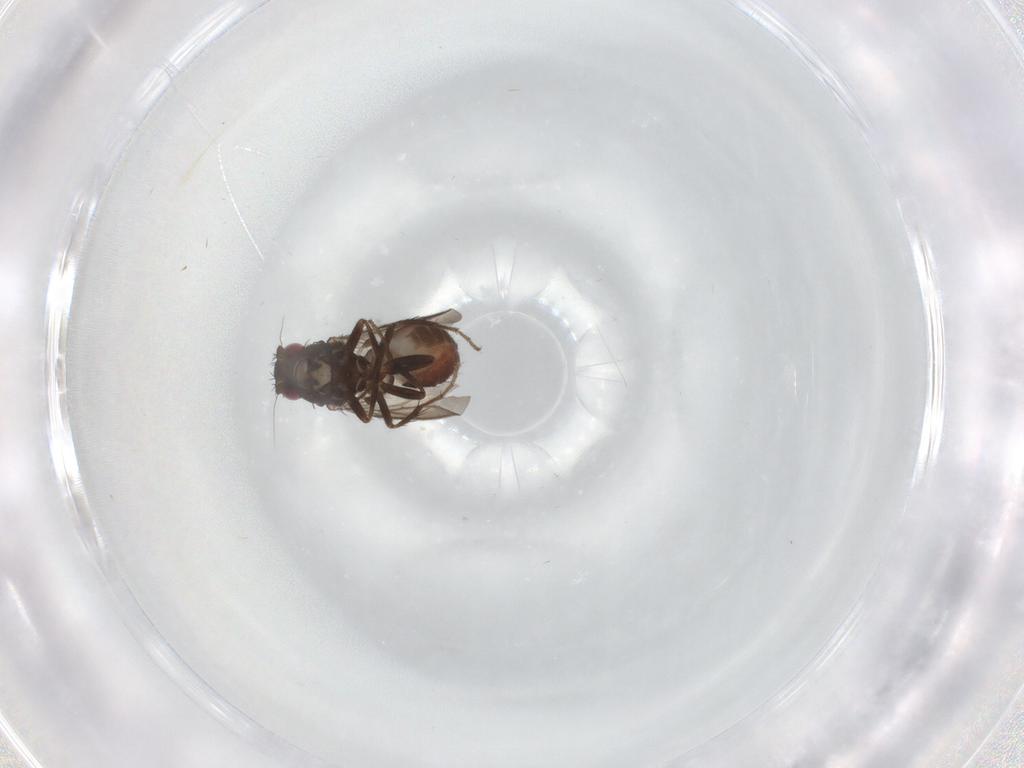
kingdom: Animalia
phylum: Arthropoda
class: Insecta
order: Diptera
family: Sphaeroceridae
